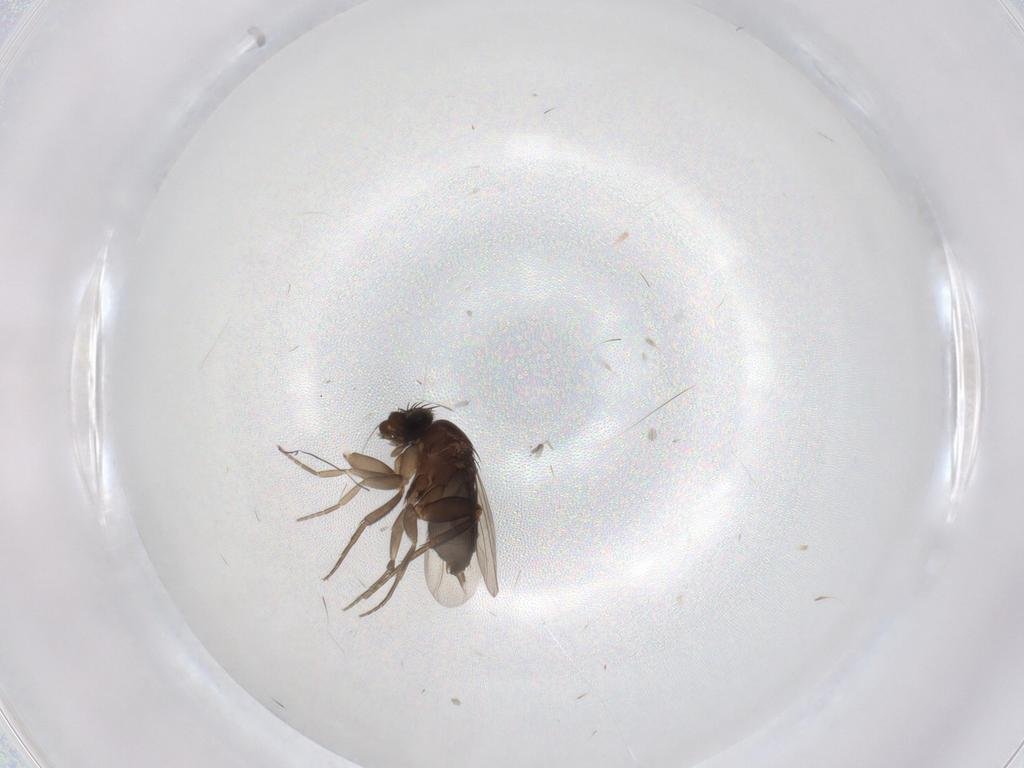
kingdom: Animalia
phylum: Arthropoda
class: Insecta
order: Diptera
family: Phoridae
